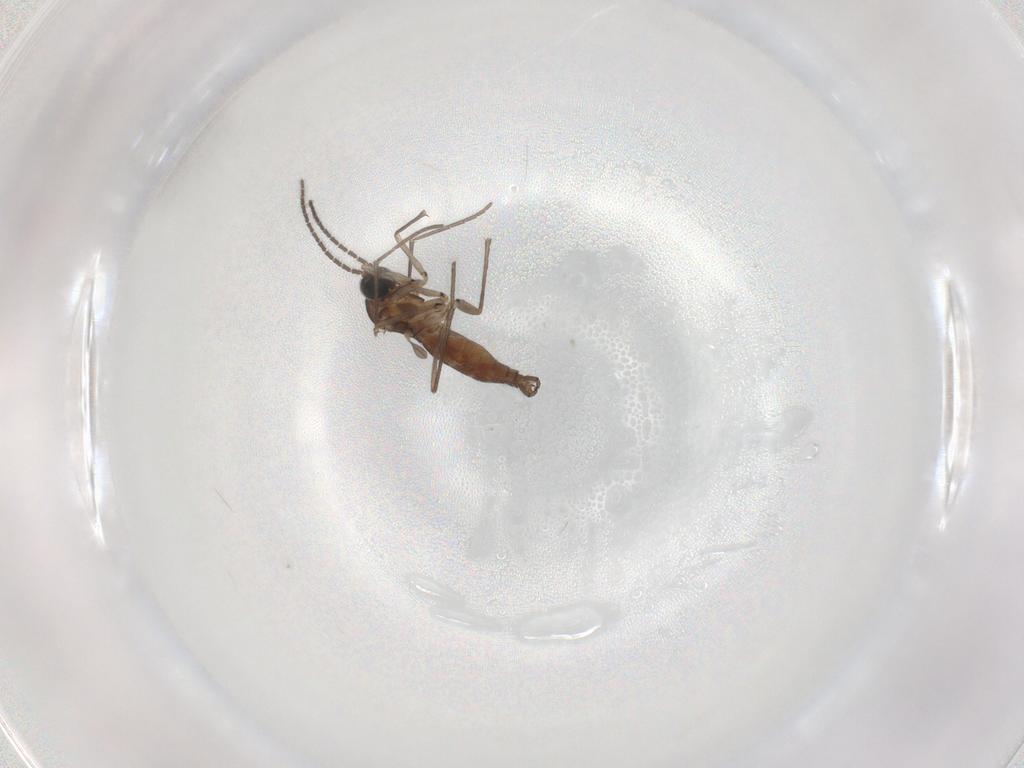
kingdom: Animalia
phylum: Arthropoda
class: Insecta
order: Diptera
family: Ceratopogonidae
